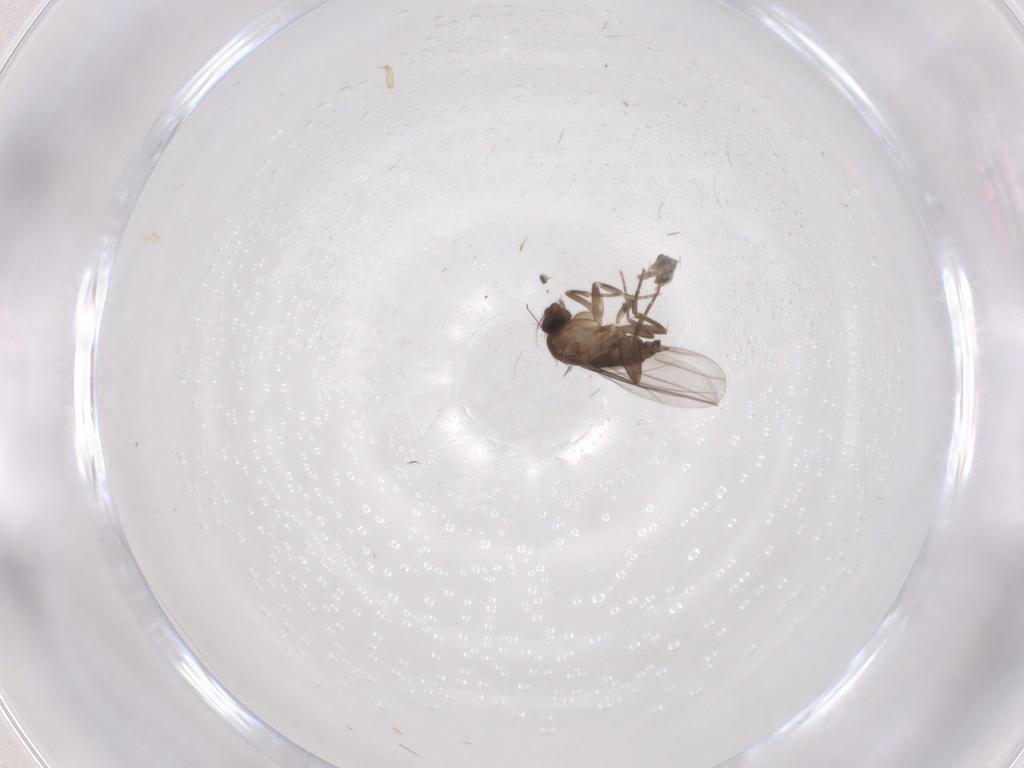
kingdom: Animalia
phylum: Arthropoda
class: Insecta
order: Diptera
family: Ceratopogonidae
